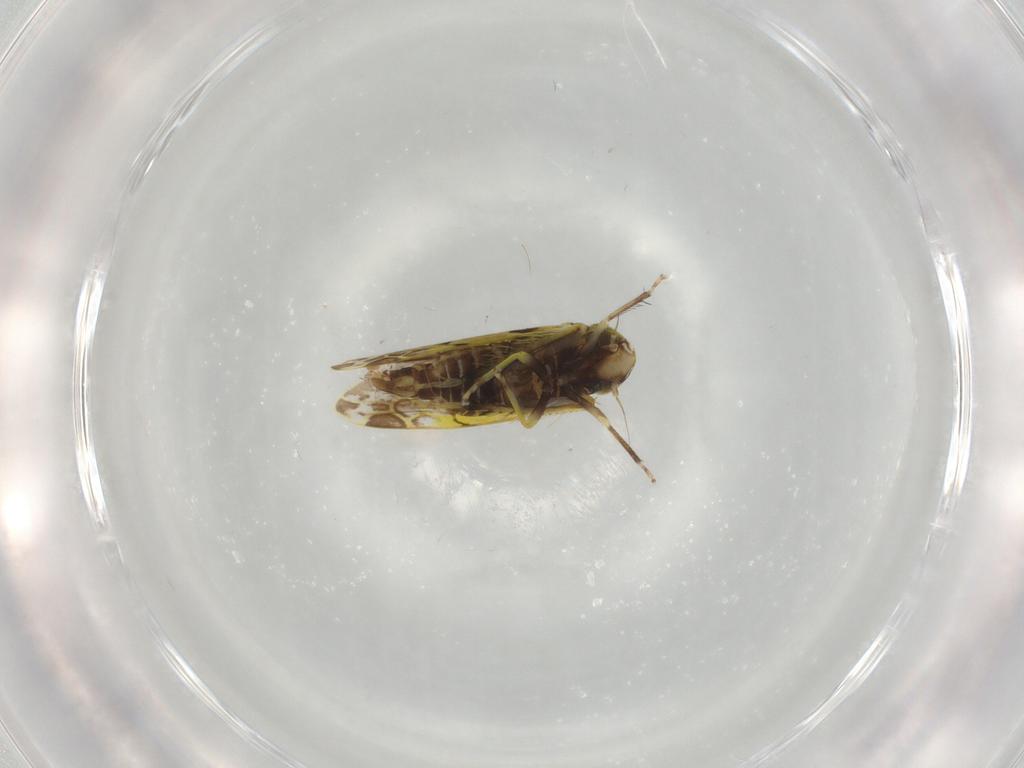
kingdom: Animalia
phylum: Arthropoda
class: Insecta
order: Hemiptera
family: Cicadellidae
